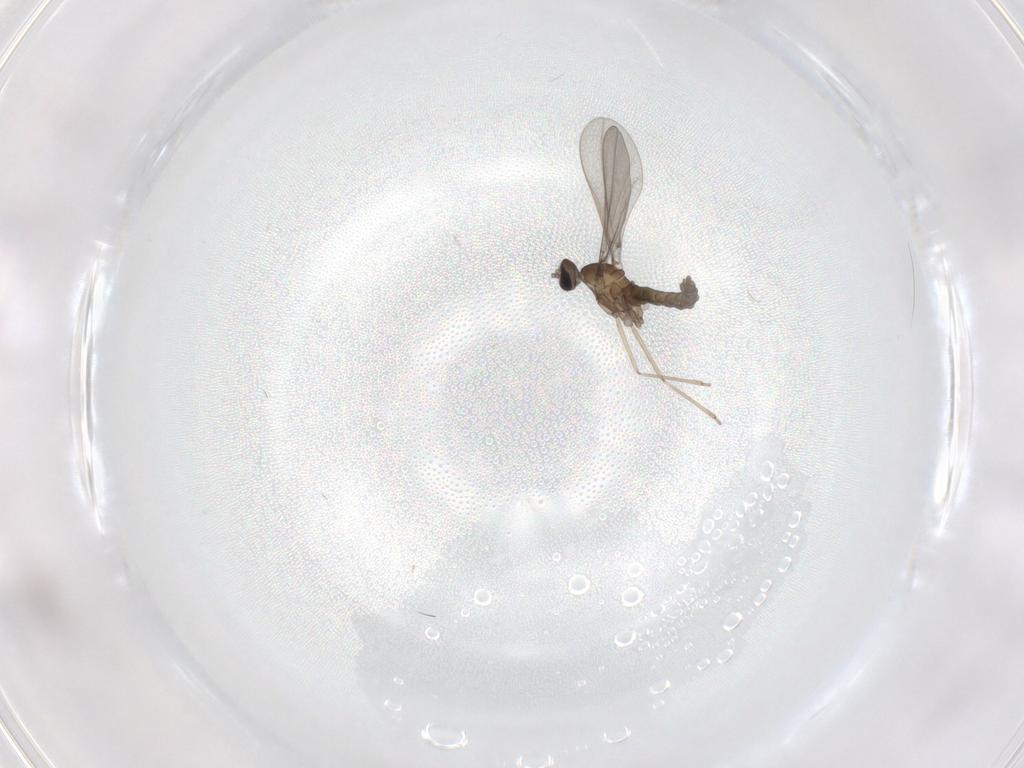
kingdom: Animalia
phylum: Arthropoda
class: Insecta
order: Diptera
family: Cecidomyiidae
